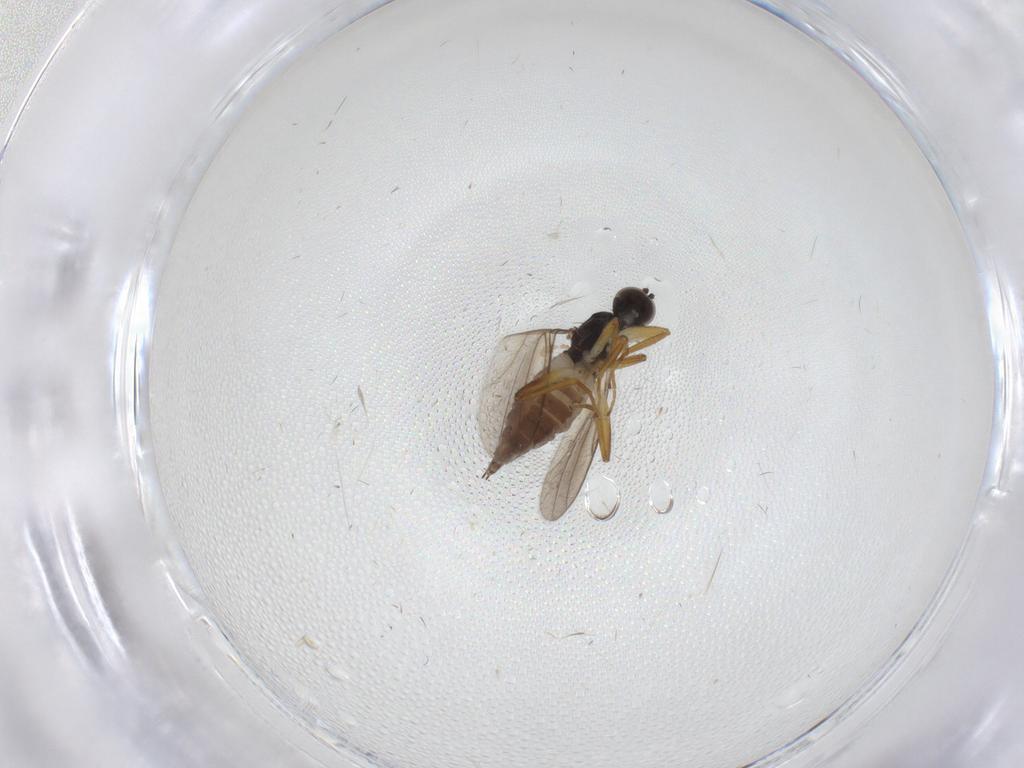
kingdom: Animalia
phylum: Arthropoda
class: Insecta
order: Diptera
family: Hybotidae
